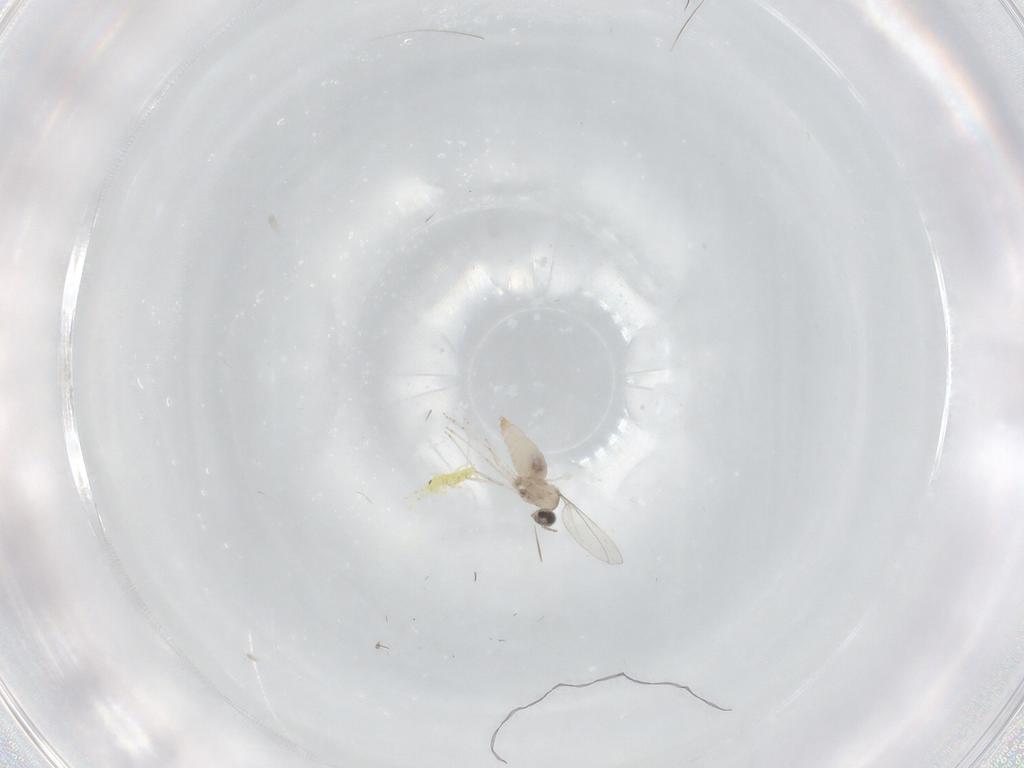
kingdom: Animalia
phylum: Arthropoda
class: Insecta
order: Diptera
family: Cecidomyiidae
